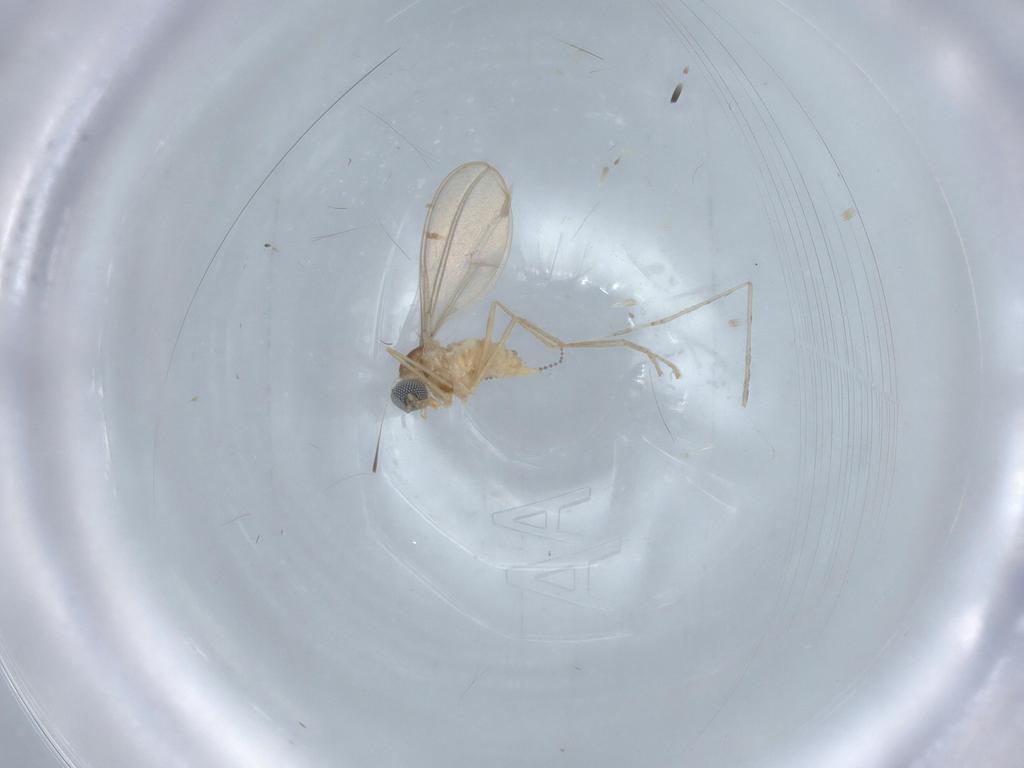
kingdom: Animalia
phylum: Arthropoda
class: Insecta
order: Diptera
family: Cecidomyiidae
